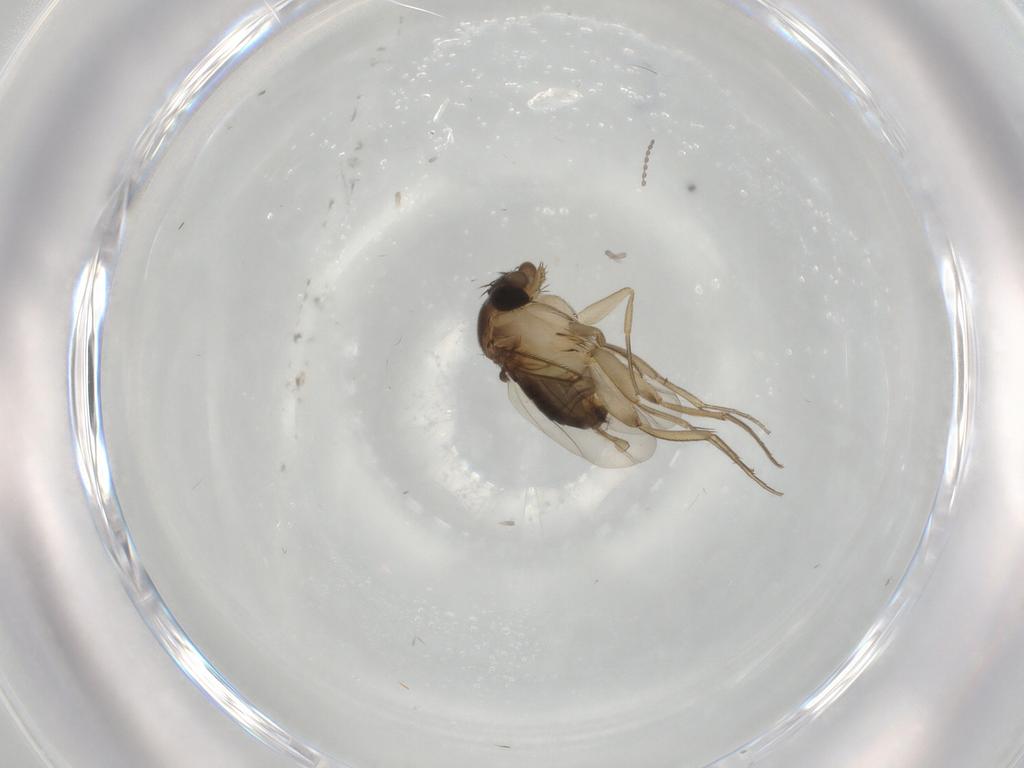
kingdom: Animalia
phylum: Arthropoda
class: Insecta
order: Diptera
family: Phoridae
